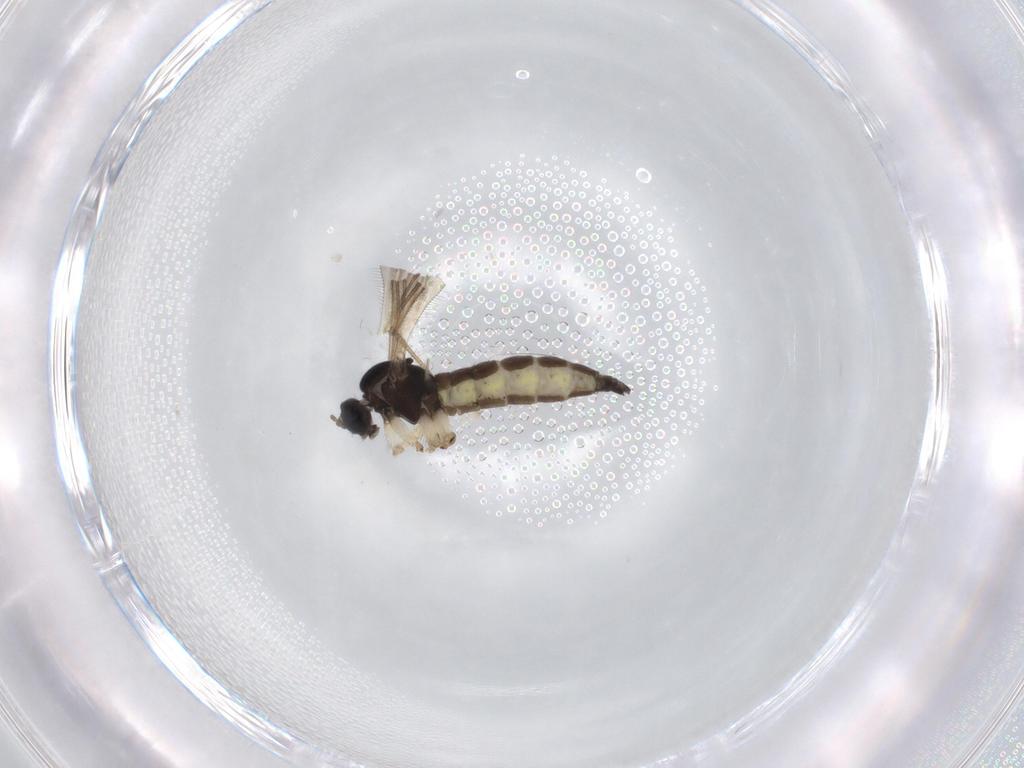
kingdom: Animalia
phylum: Arthropoda
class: Insecta
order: Diptera
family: Sciaridae
